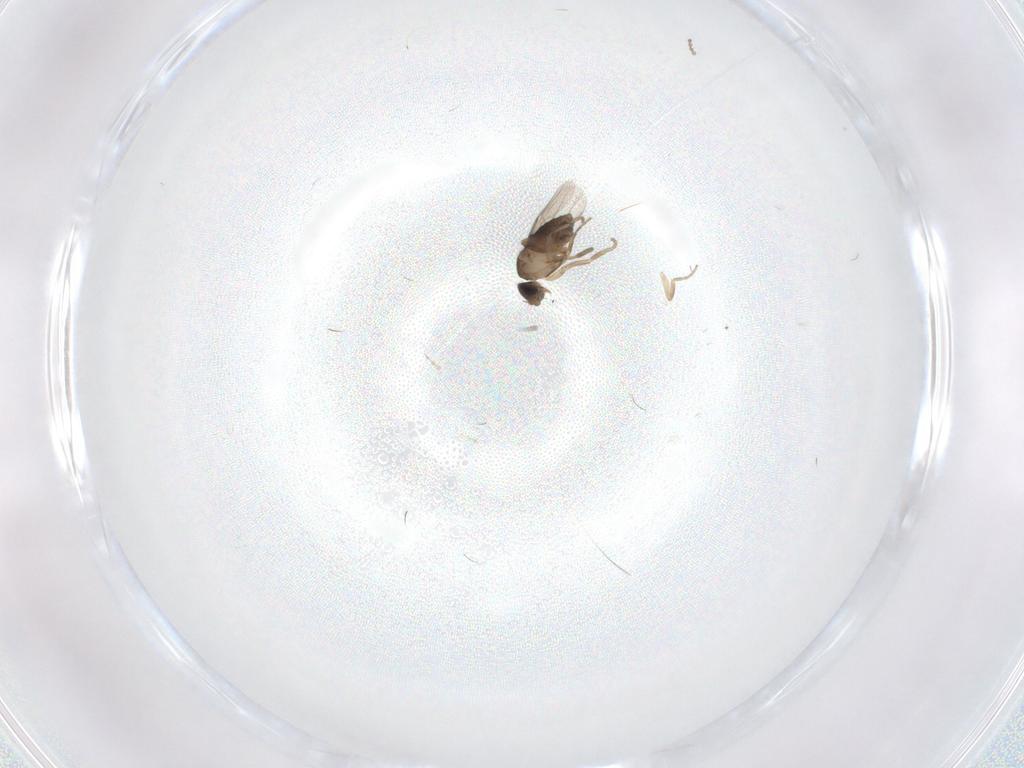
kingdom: Animalia
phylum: Arthropoda
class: Insecta
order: Diptera
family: Phoridae
